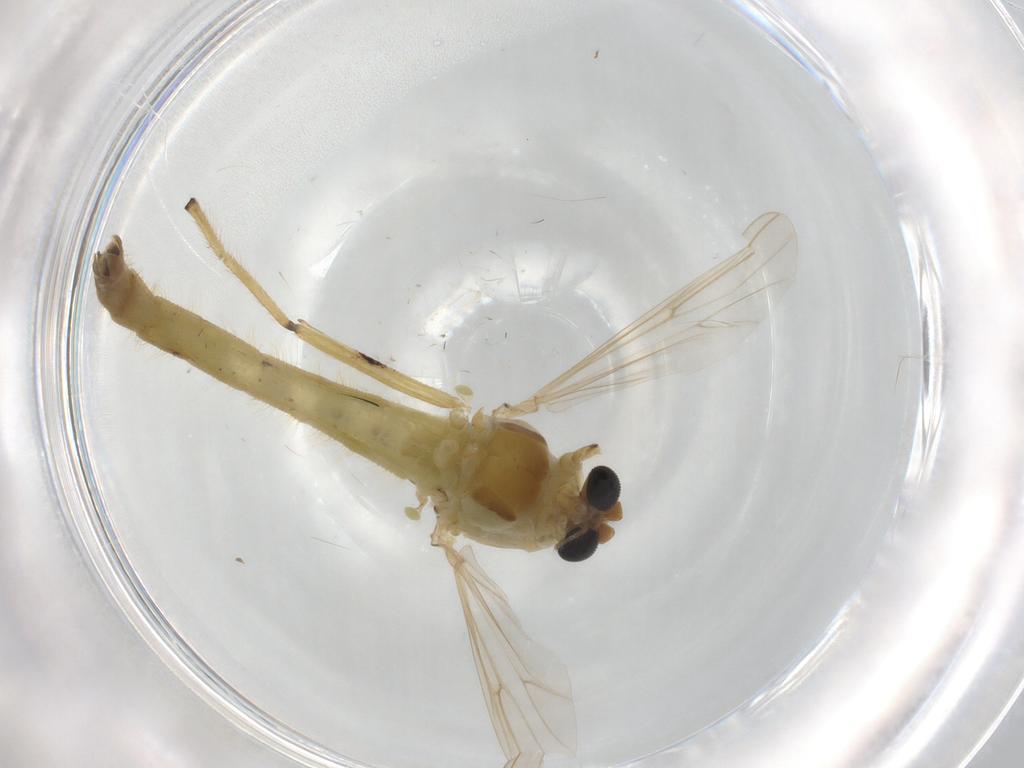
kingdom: Animalia
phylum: Arthropoda
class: Insecta
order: Diptera
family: Chironomidae
